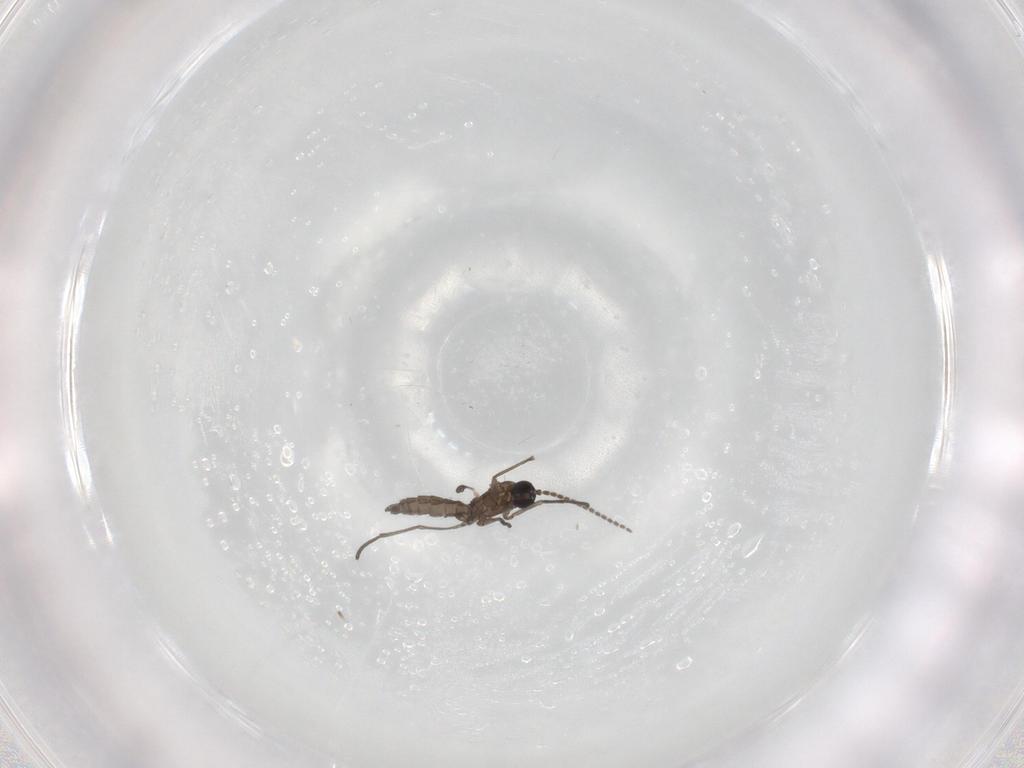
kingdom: Animalia
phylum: Arthropoda
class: Insecta
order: Diptera
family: Sciaridae
